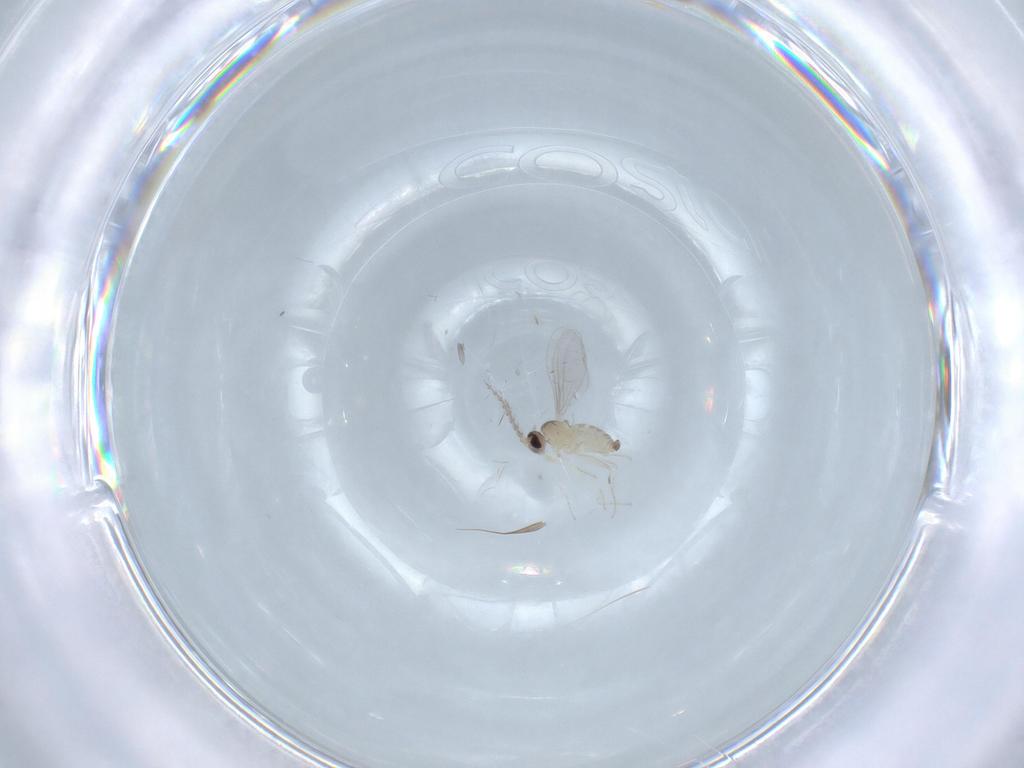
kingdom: Animalia
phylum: Arthropoda
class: Insecta
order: Diptera
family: Cecidomyiidae
